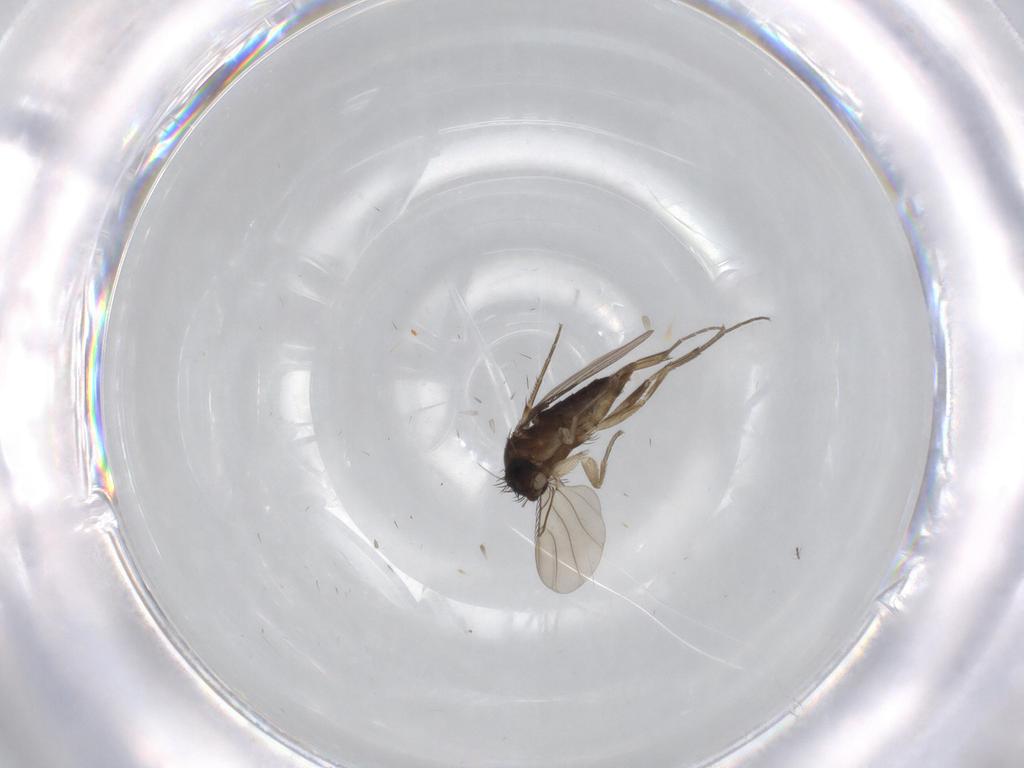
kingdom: Animalia
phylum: Arthropoda
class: Insecta
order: Diptera
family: Phoridae
